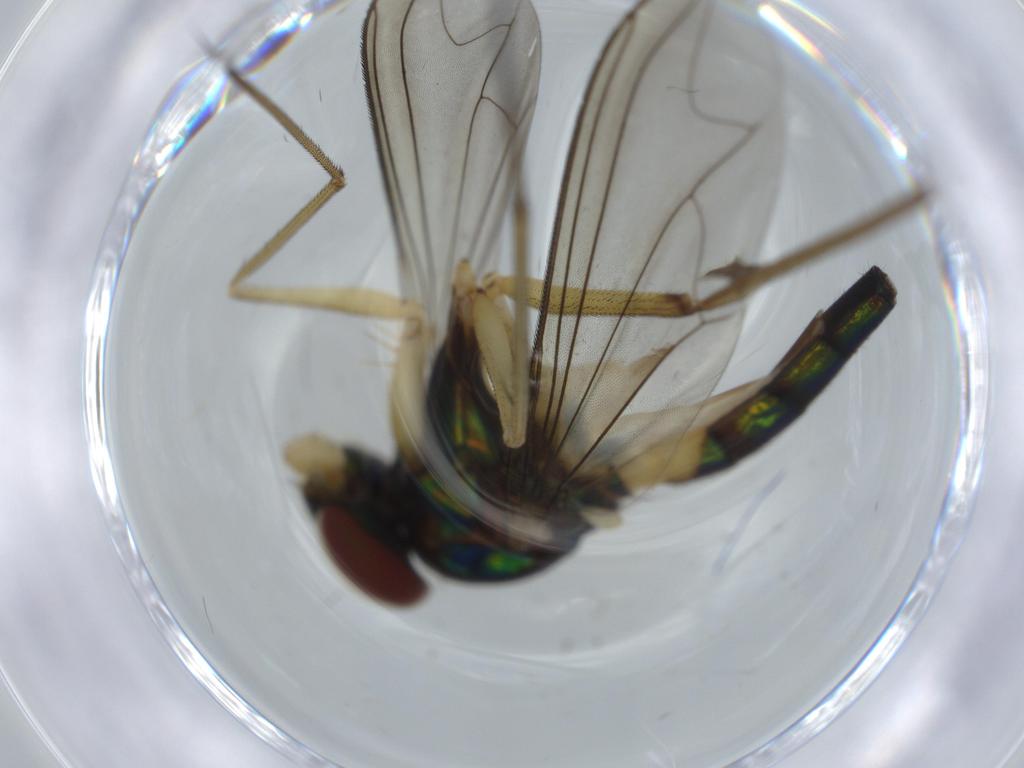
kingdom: Animalia
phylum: Arthropoda
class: Insecta
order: Diptera
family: Dolichopodidae
